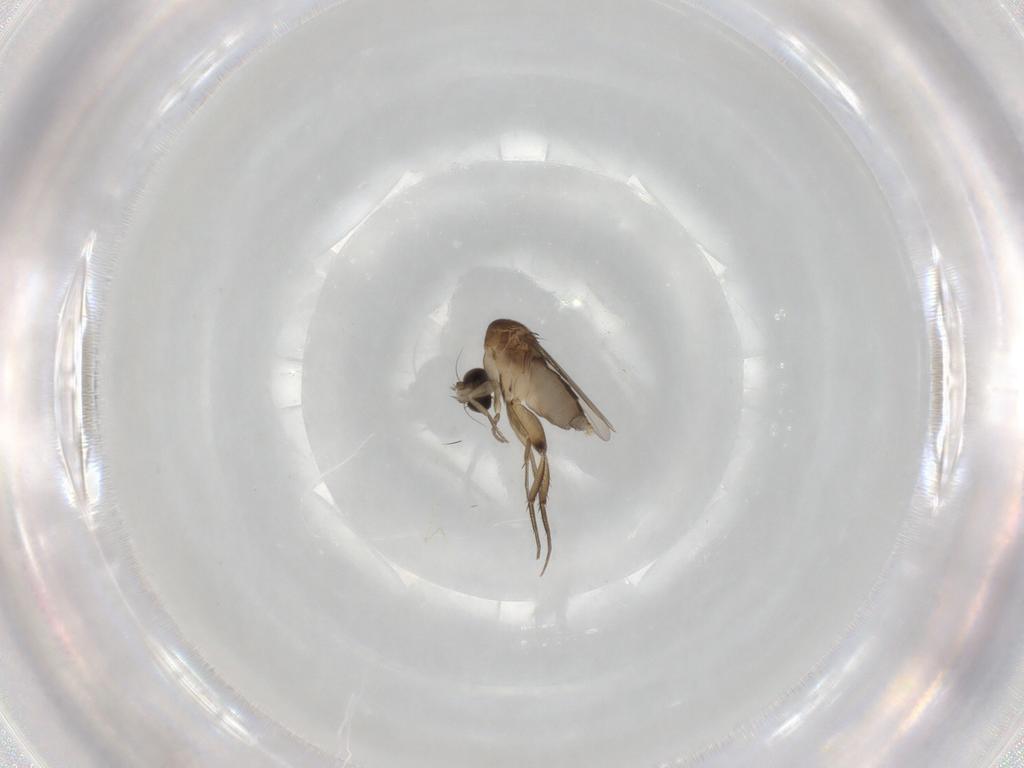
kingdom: Animalia
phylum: Arthropoda
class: Insecta
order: Diptera
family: Phoridae
